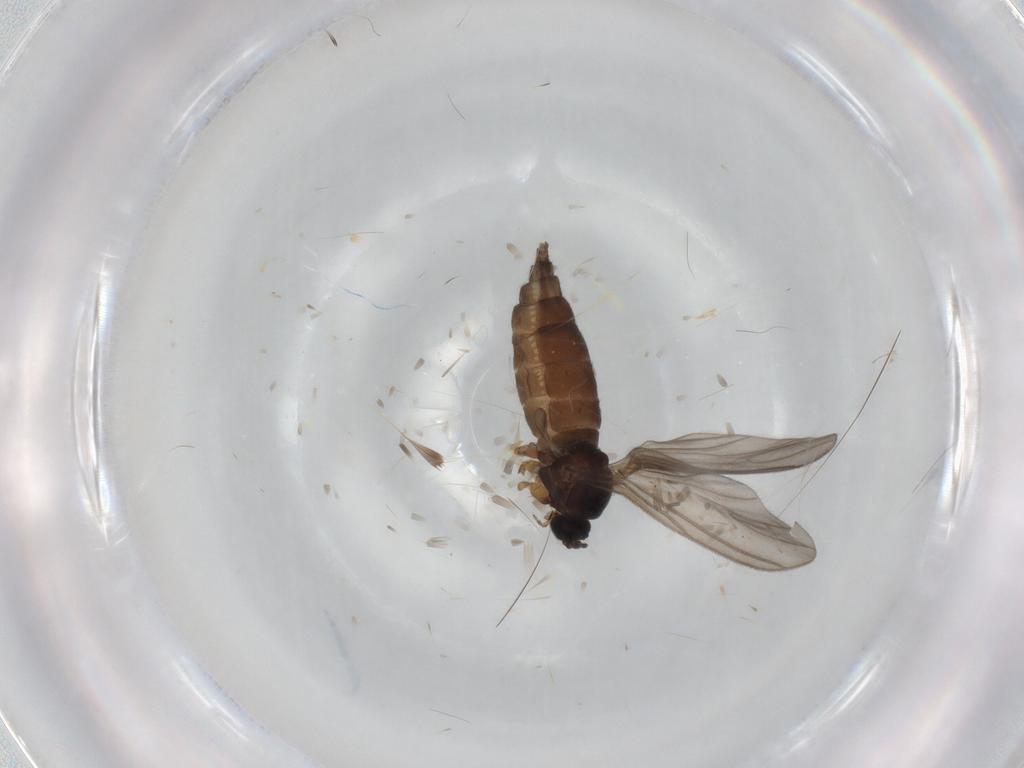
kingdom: Animalia
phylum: Arthropoda
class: Insecta
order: Diptera
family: Sciaridae
